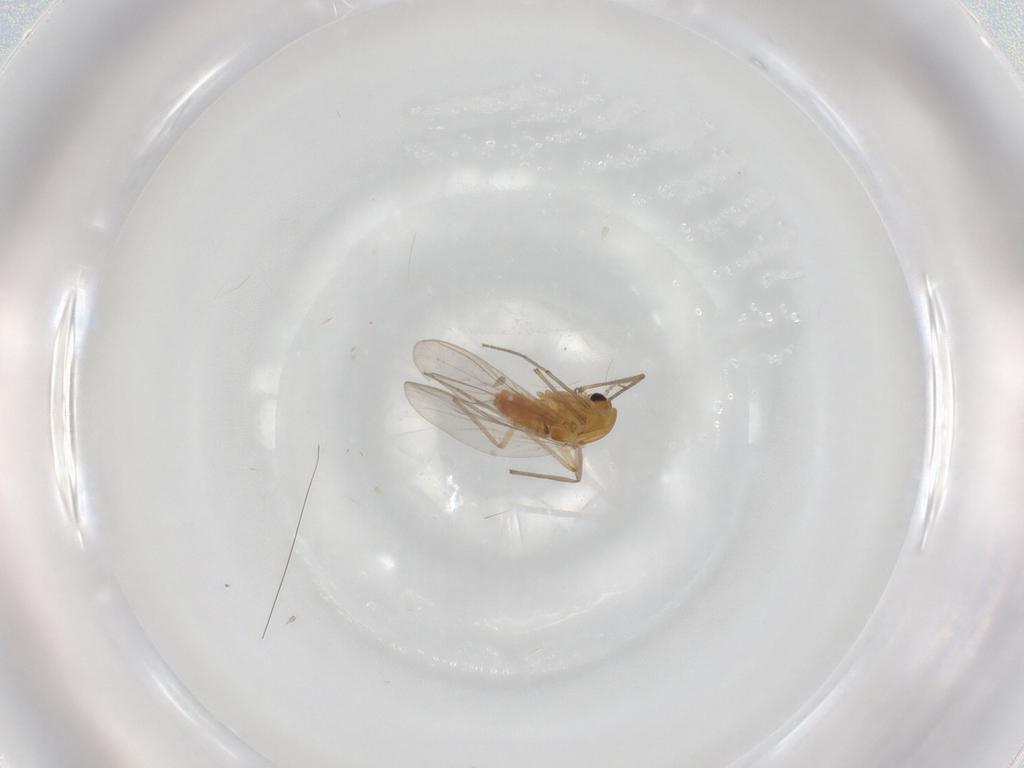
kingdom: Animalia
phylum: Arthropoda
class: Insecta
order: Diptera
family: Chironomidae
